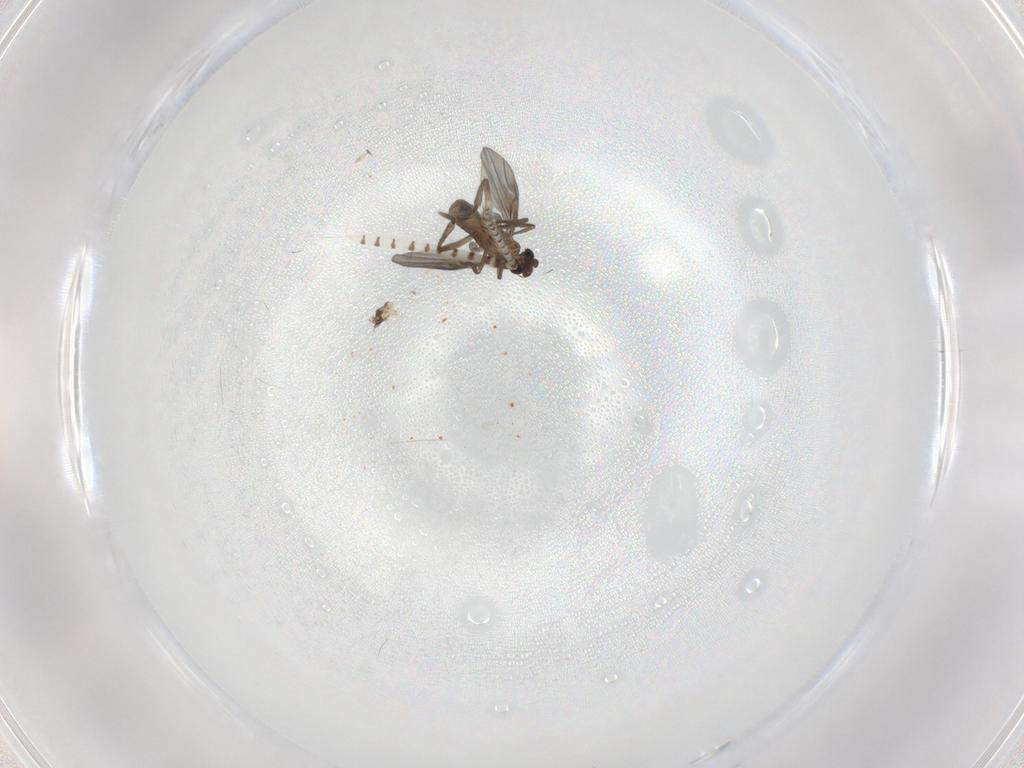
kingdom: Animalia
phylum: Arthropoda
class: Insecta
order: Diptera
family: Phoridae
